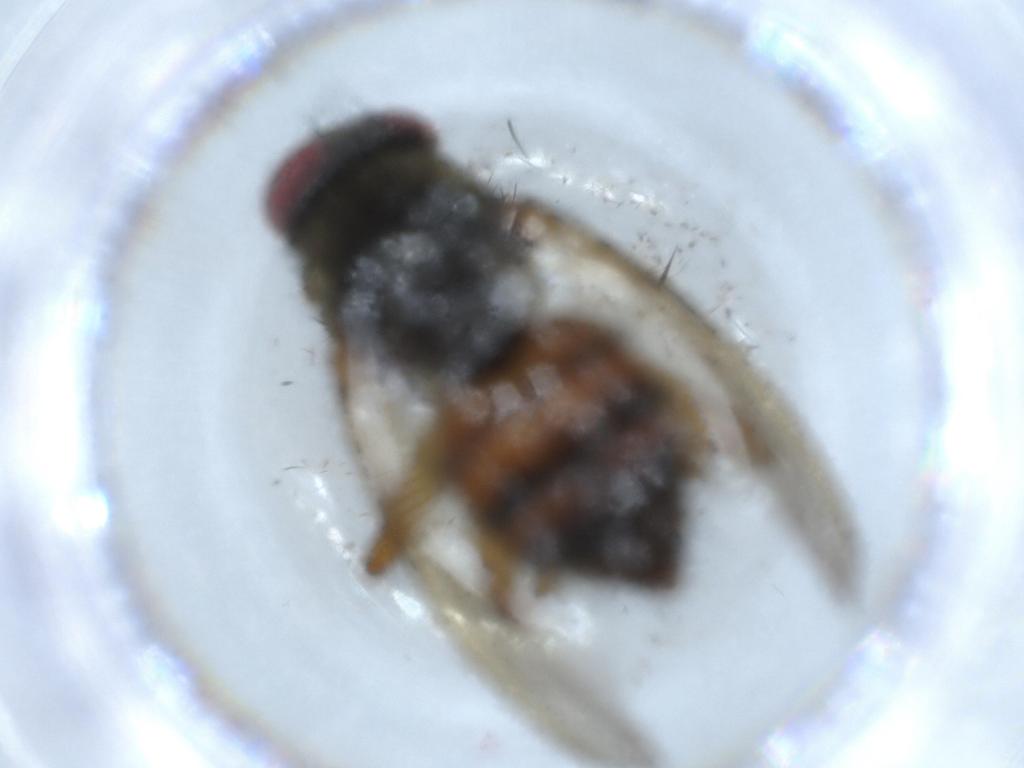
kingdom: Animalia
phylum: Arthropoda
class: Insecta
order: Diptera
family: Muscidae
